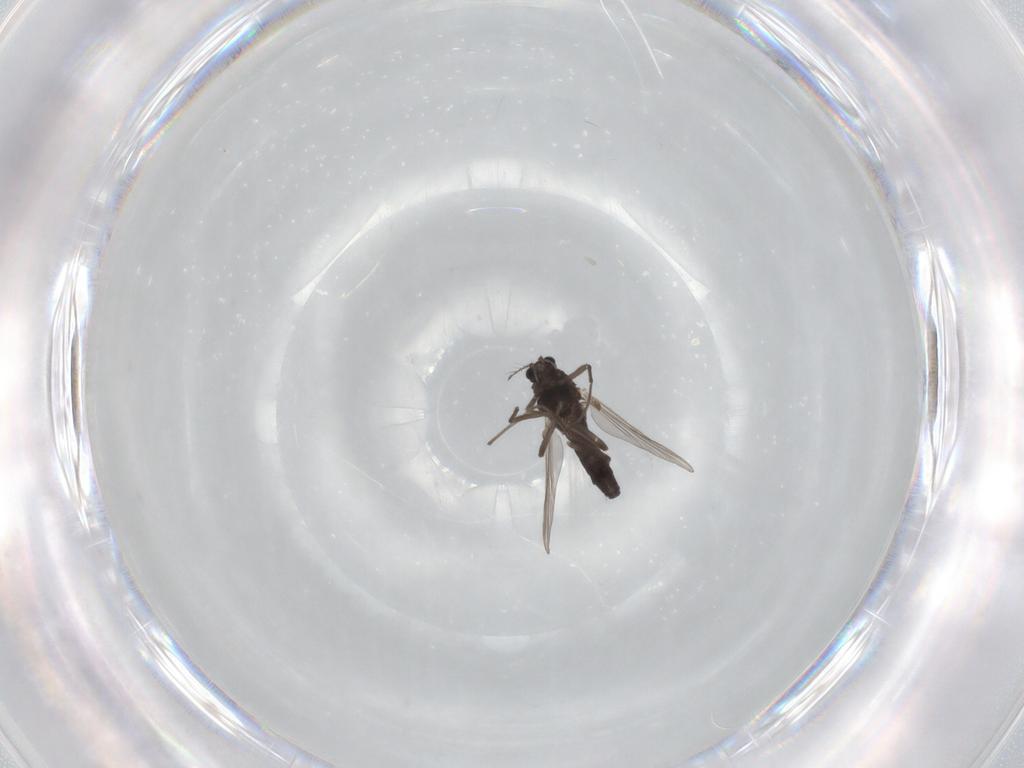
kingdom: Animalia
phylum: Arthropoda
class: Insecta
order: Diptera
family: Chironomidae
